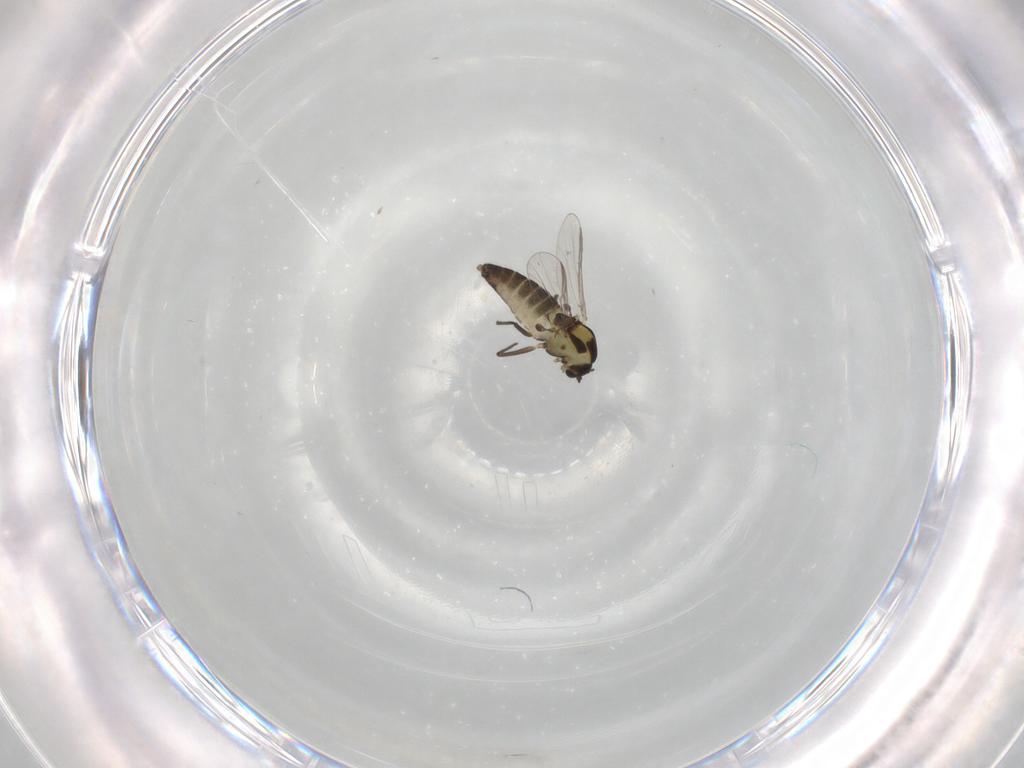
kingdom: Animalia
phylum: Arthropoda
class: Insecta
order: Diptera
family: Chironomidae
